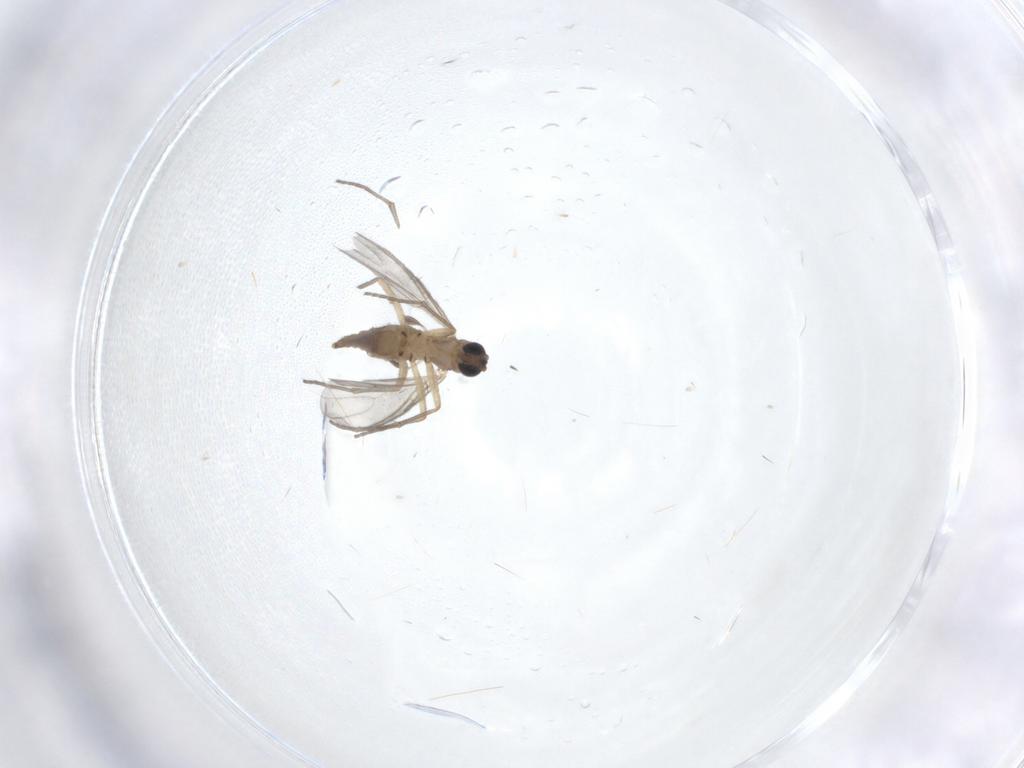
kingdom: Animalia
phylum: Arthropoda
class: Insecta
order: Diptera
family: Sciaridae
